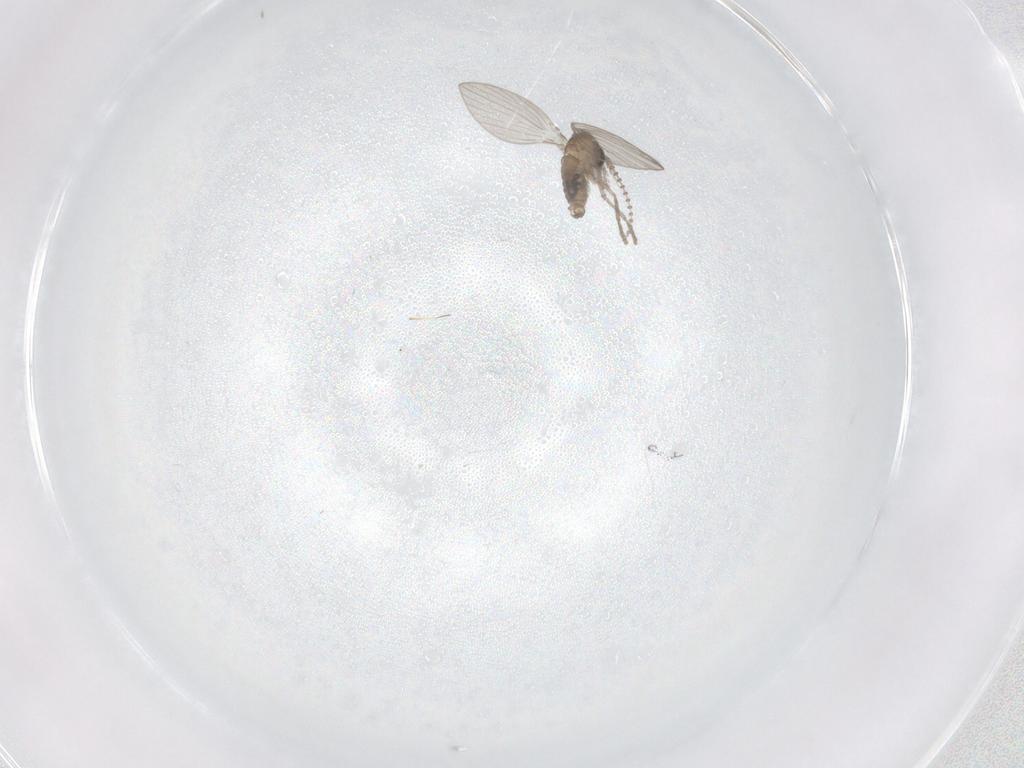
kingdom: Animalia
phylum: Arthropoda
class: Insecta
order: Diptera
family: Psychodidae
